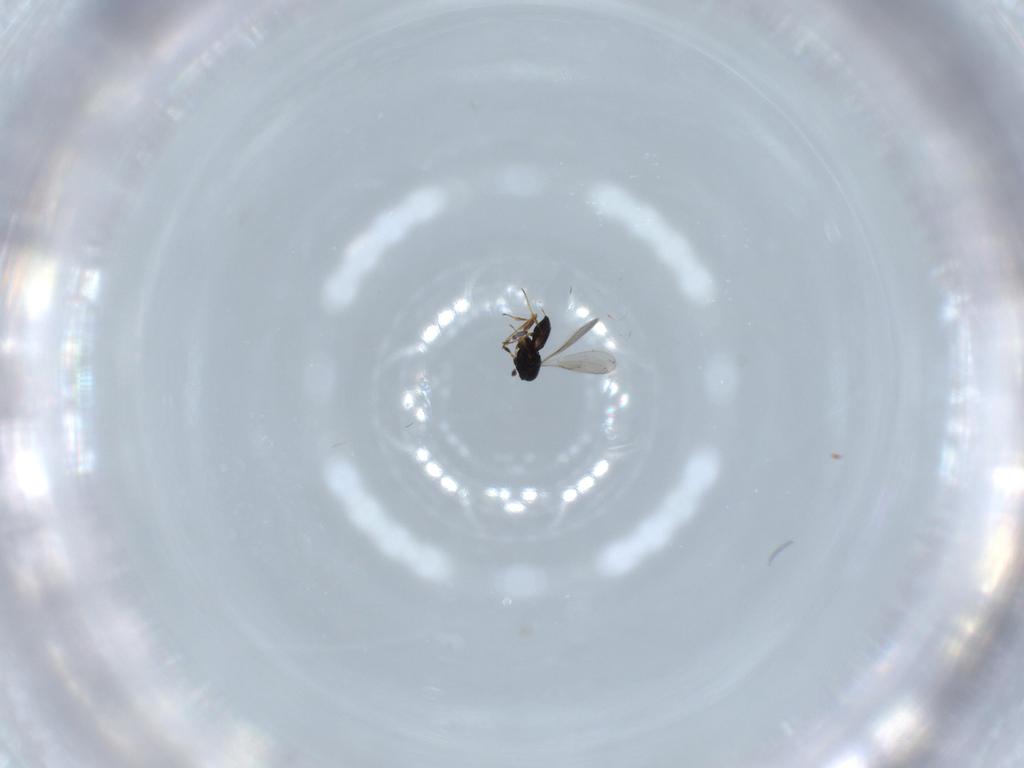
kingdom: Animalia
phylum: Arthropoda
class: Insecta
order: Hymenoptera
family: Scelionidae
